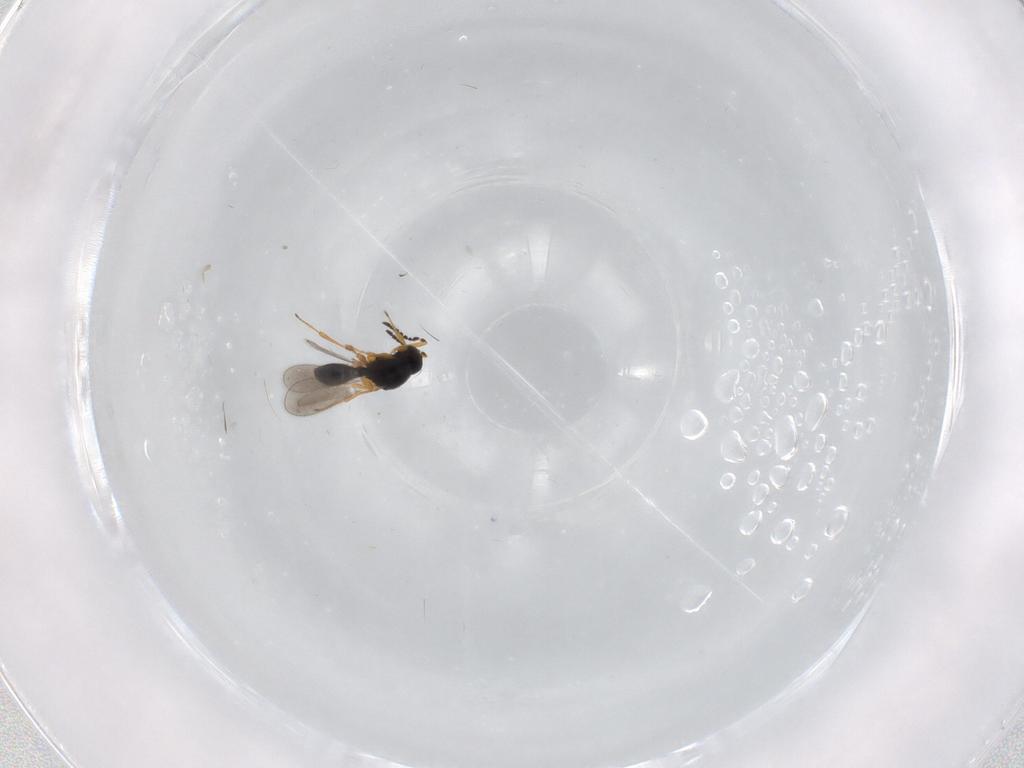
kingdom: Animalia
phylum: Arthropoda
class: Insecta
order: Hymenoptera
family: Platygastridae
